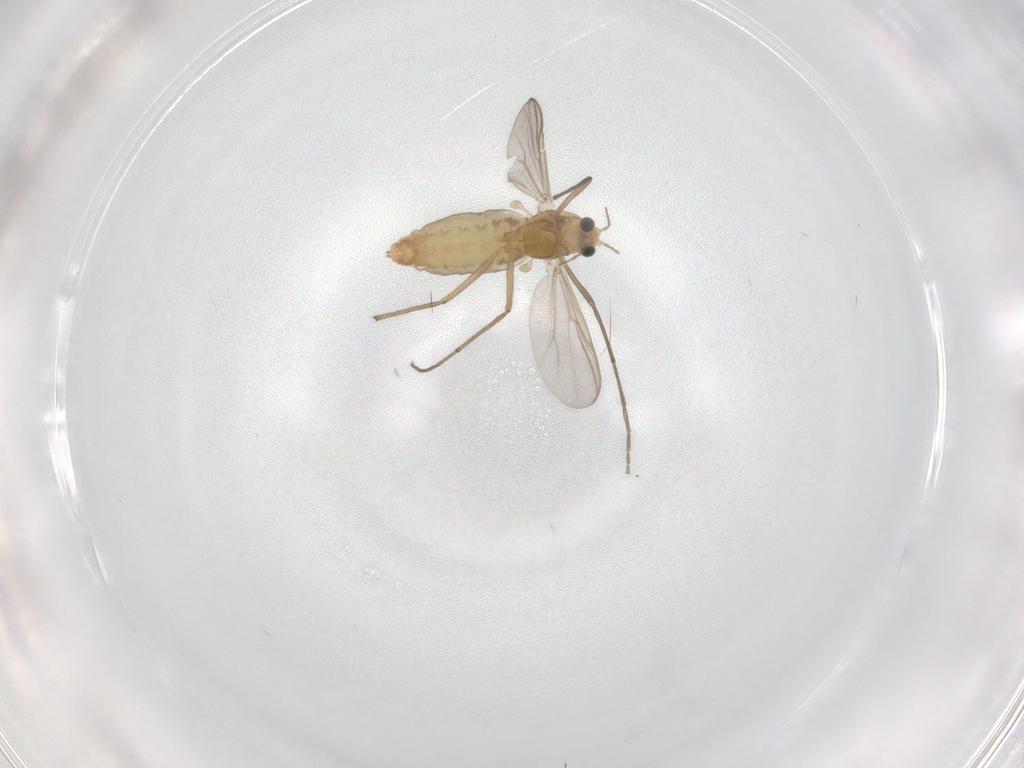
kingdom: Animalia
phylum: Arthropoda
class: Insecta
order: Diptera
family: Chironomidae
